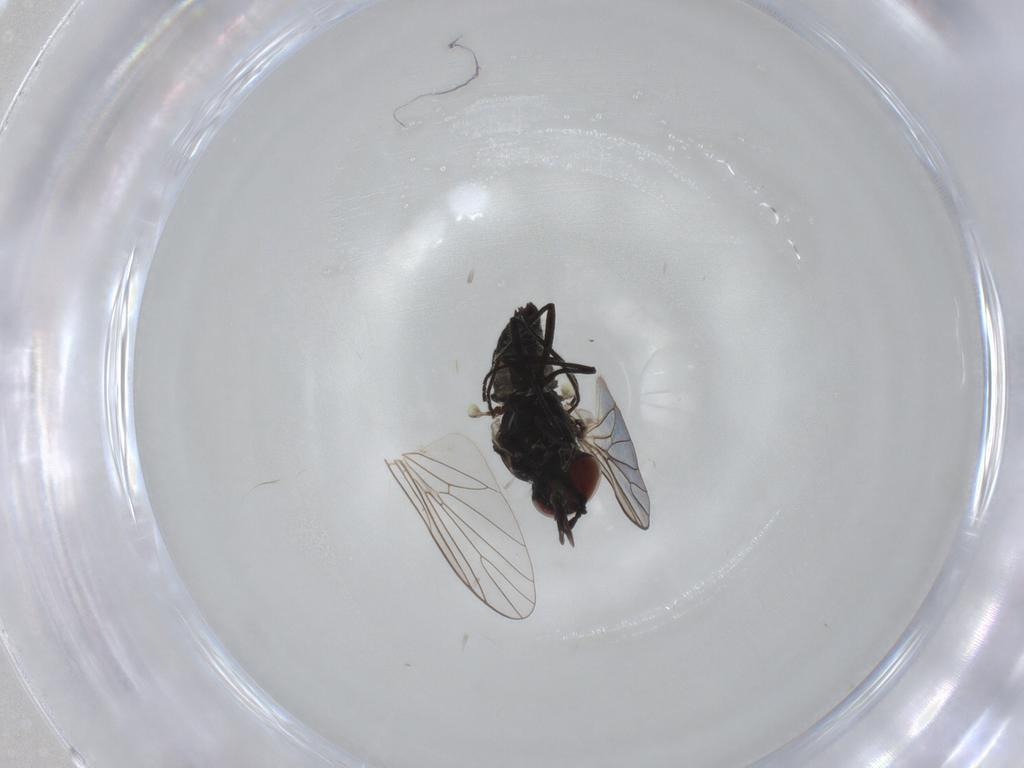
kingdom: Animalia
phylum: Arthropoda
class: Insecta
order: Diptera
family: Bombyliidae
